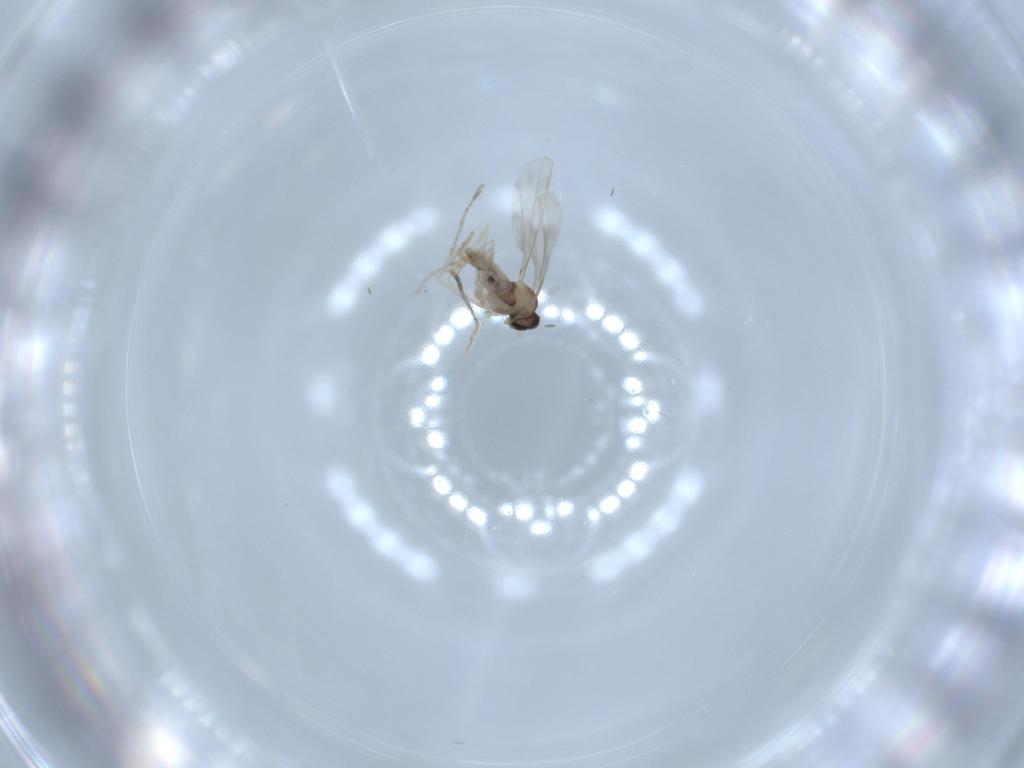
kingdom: Animalia
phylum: Arthropoda
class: Insecta
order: Diptera
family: Cecidomyiidae
